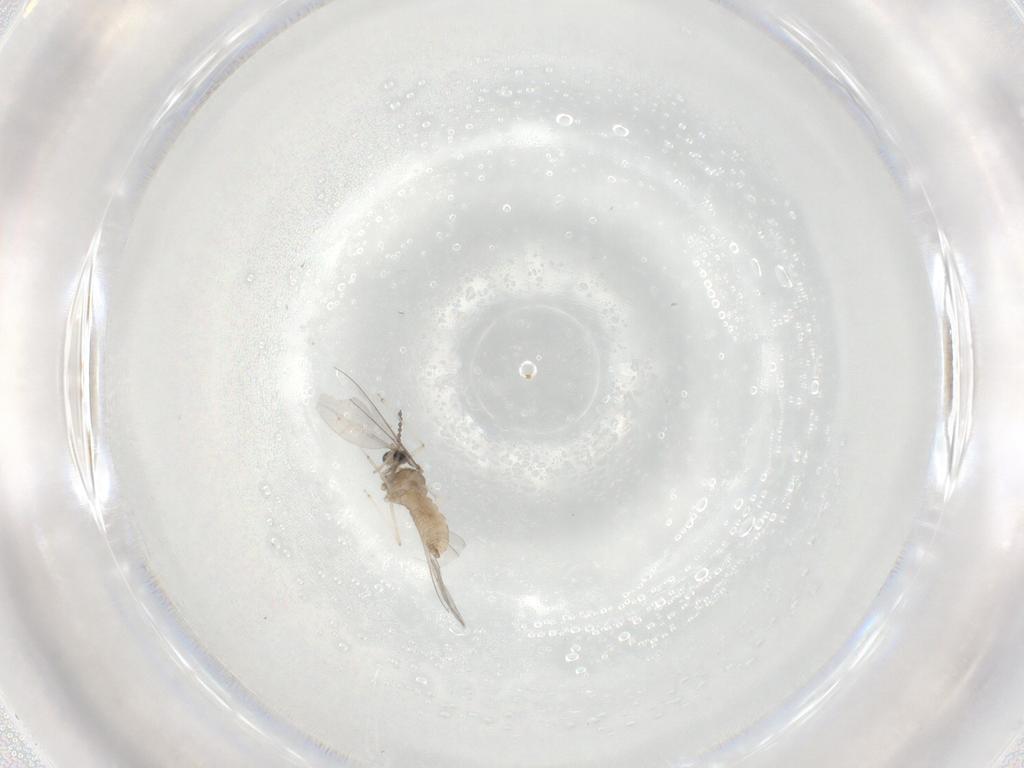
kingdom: Animalia
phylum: Arthropoda
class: Insecta
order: Diptera
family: Cecidomyiidae
